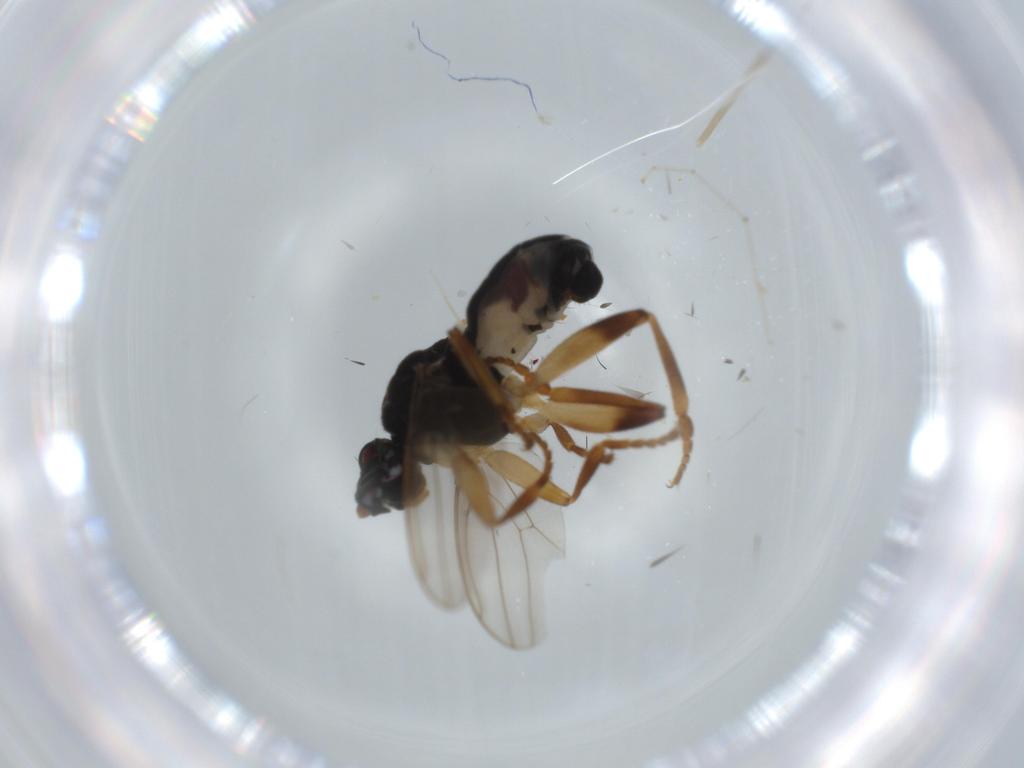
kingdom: Animalia
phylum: Arthropoda
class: Insecta
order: Diptera
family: Sphaeroceridae
